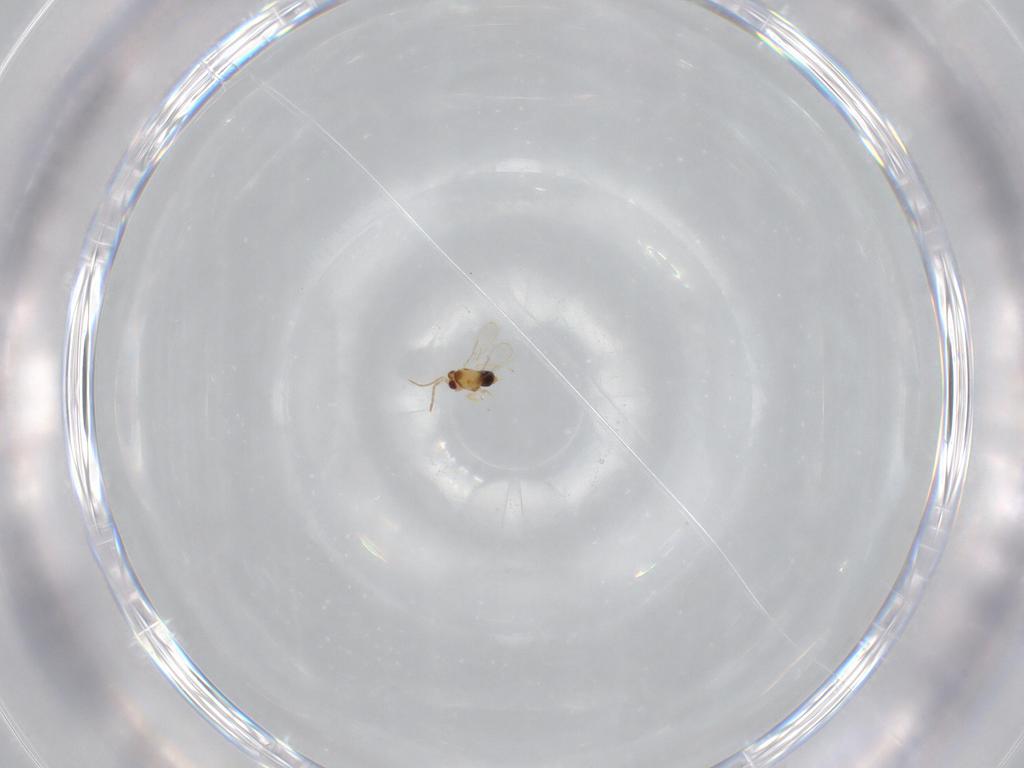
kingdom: Animalia
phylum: Arthropoda
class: Insecta
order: Hymenoptera
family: Aphelinidae
